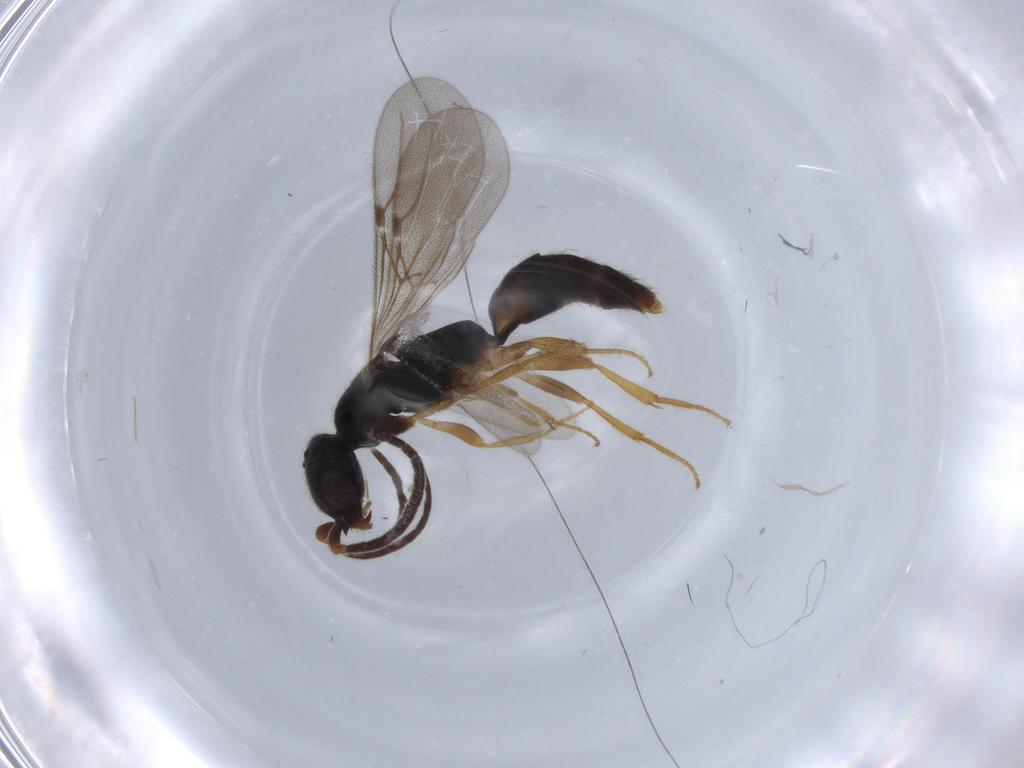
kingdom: Animalia
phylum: Arthropoda
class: Insecta
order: Hymenoptera
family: Bethylidae
